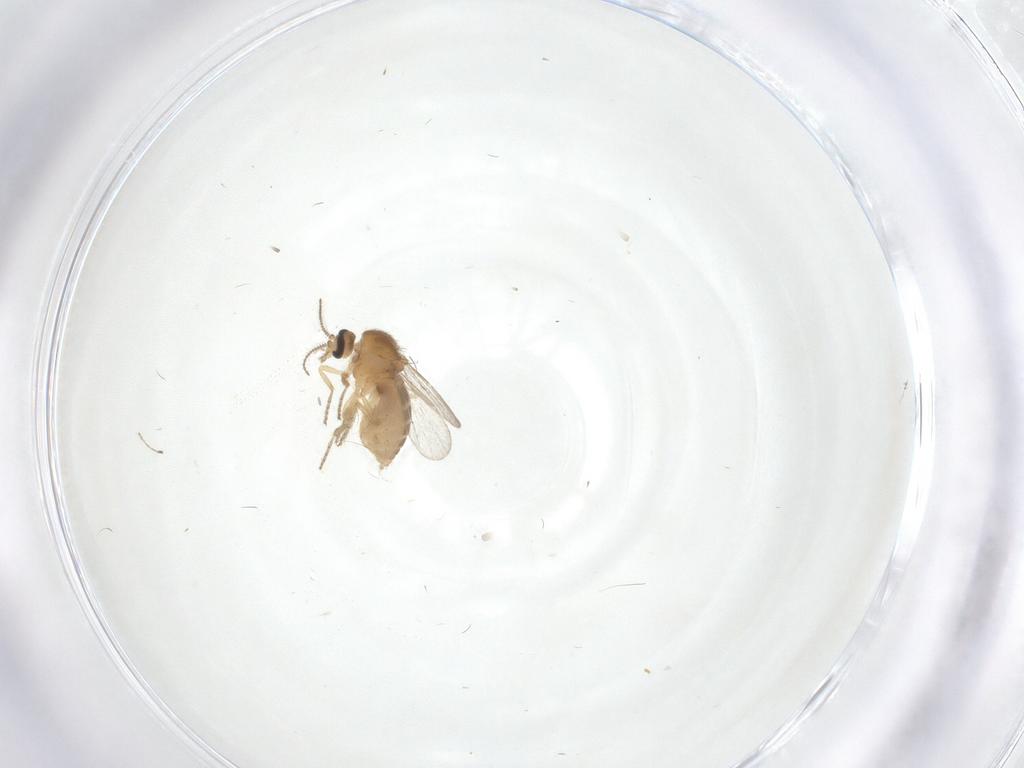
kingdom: Animalia
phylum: Arthropoda
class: Insecta
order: Diptera
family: Ceratopogonidae
